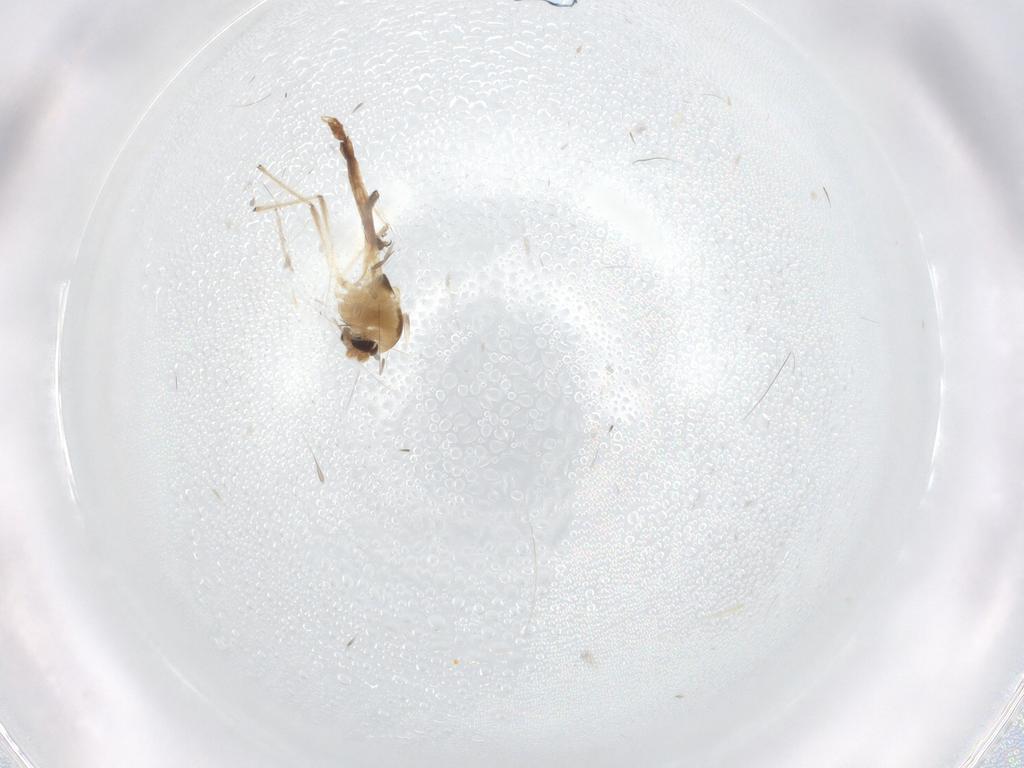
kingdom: Animalia
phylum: Arthropoda
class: Insecta
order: Diptera
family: Chironomidae
